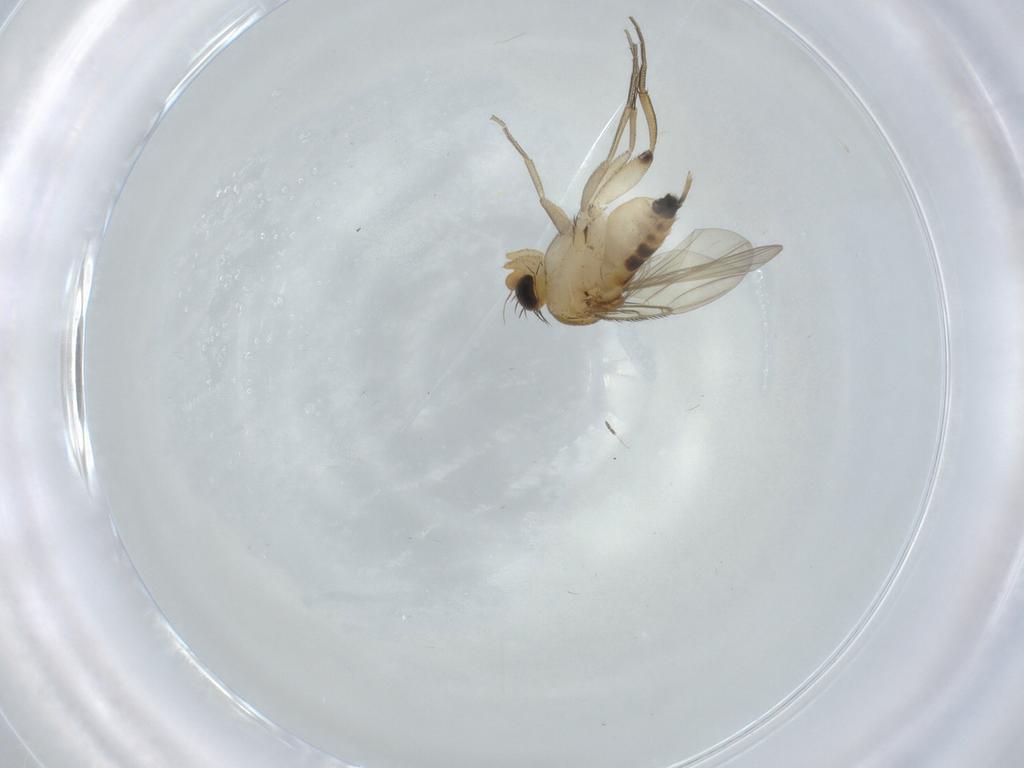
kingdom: Animalia
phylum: Arthropoda
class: Insecta
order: Diptera
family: Phoridae
